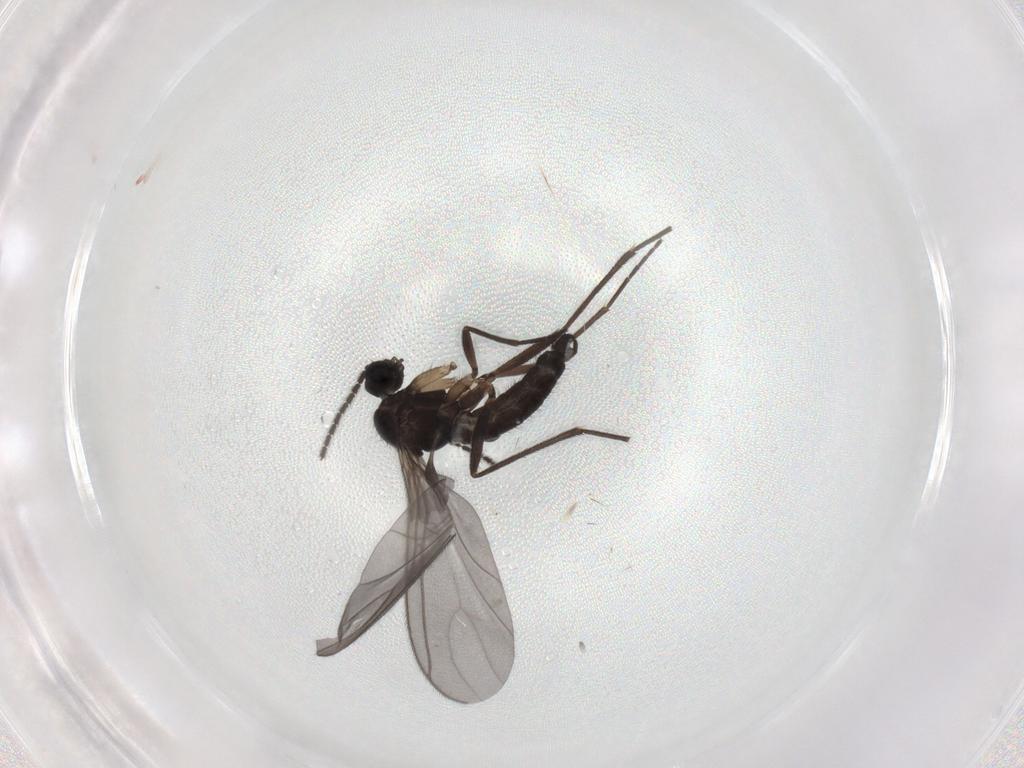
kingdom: Animalia
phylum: Arthropoda
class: Insecta
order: Diptera
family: Sciaridae
